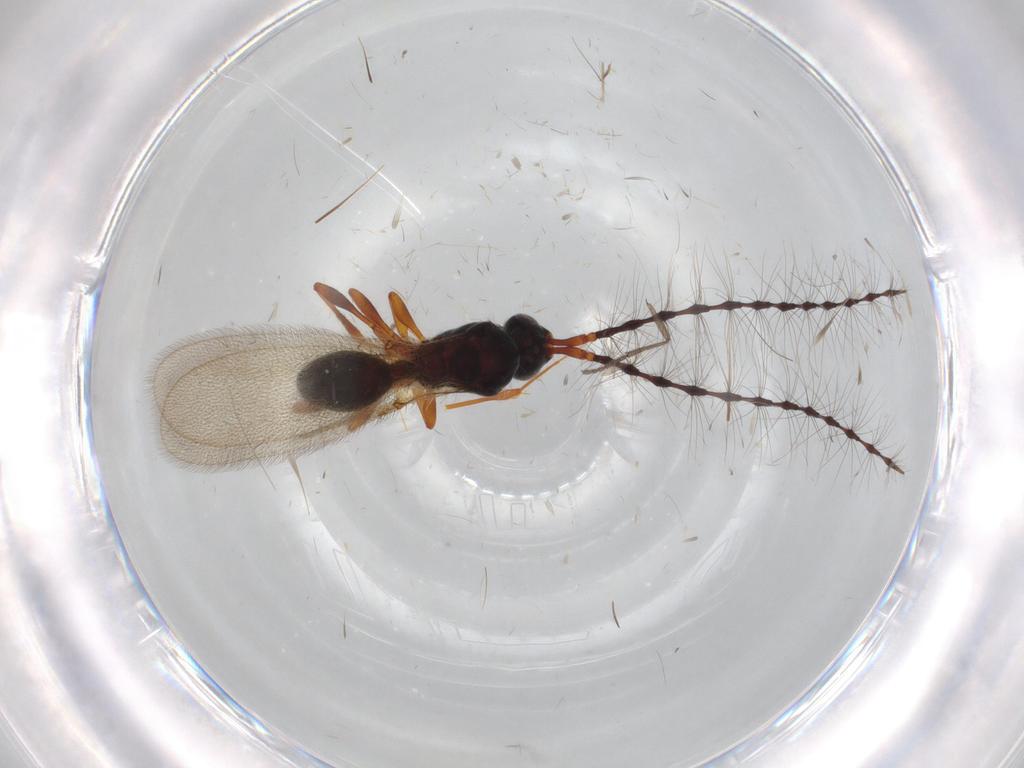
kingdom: Animalia
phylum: Arthropoda
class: Insecta
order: Hymenoptera
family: Diapriidae
